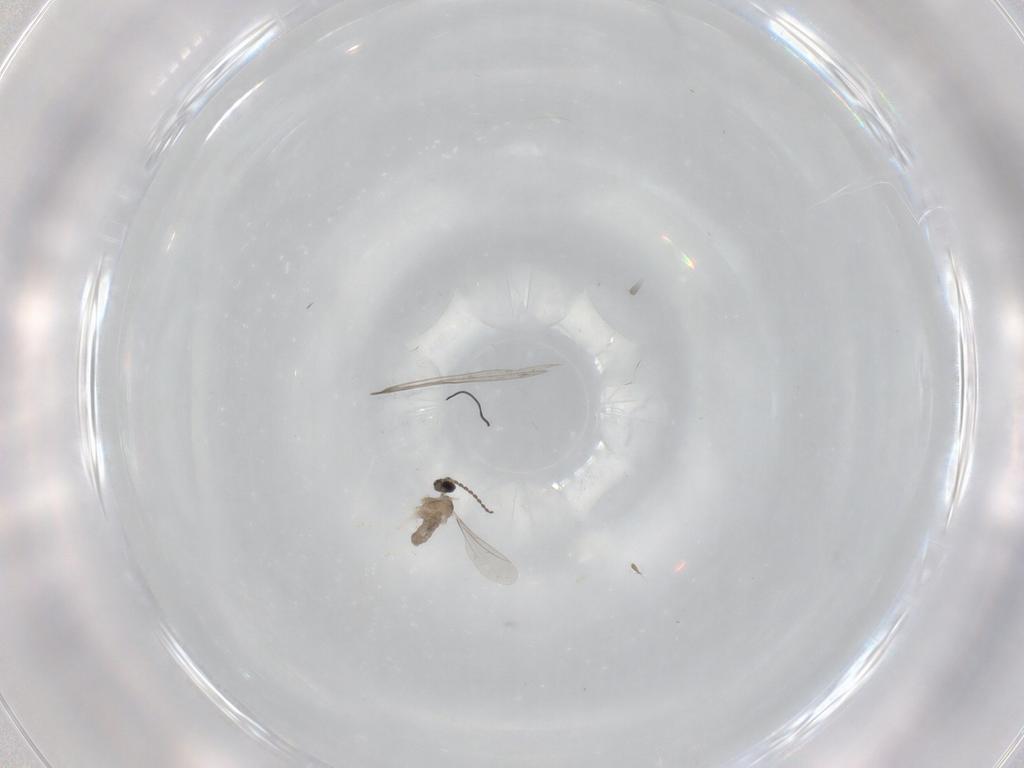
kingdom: Animalia
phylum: Arthropoda
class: Insecta
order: Diptera
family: Cecidomyiidae
